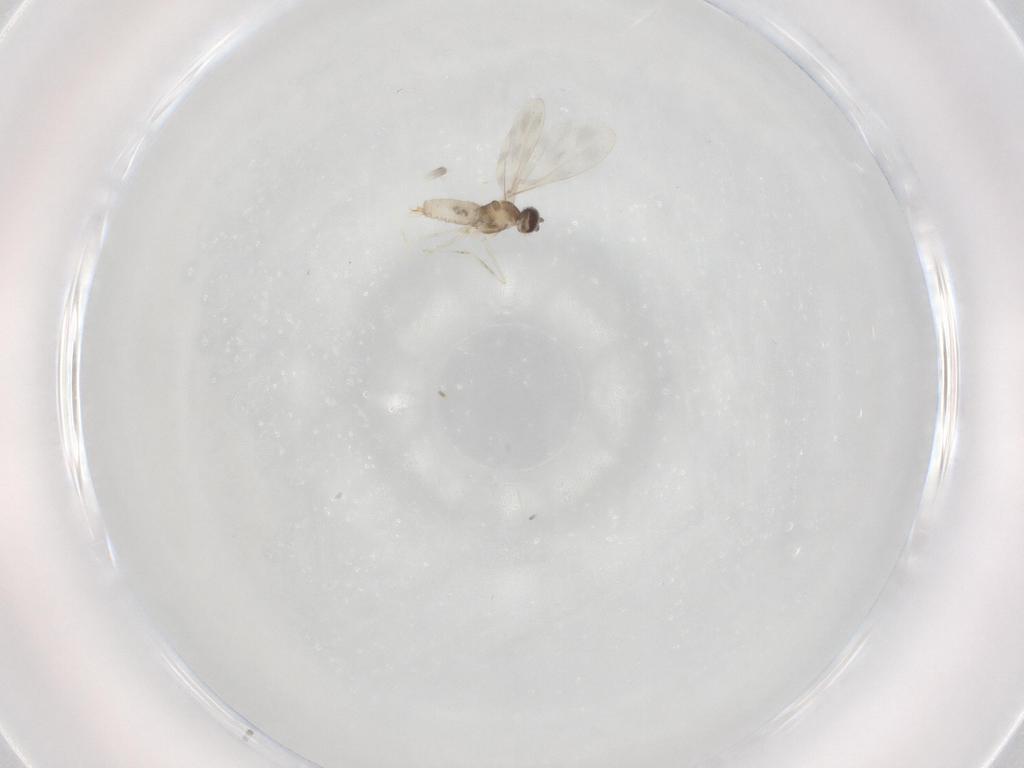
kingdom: Animalia
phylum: Arthropoda
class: Insecta
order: Diptera
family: Cecidomyiidae
